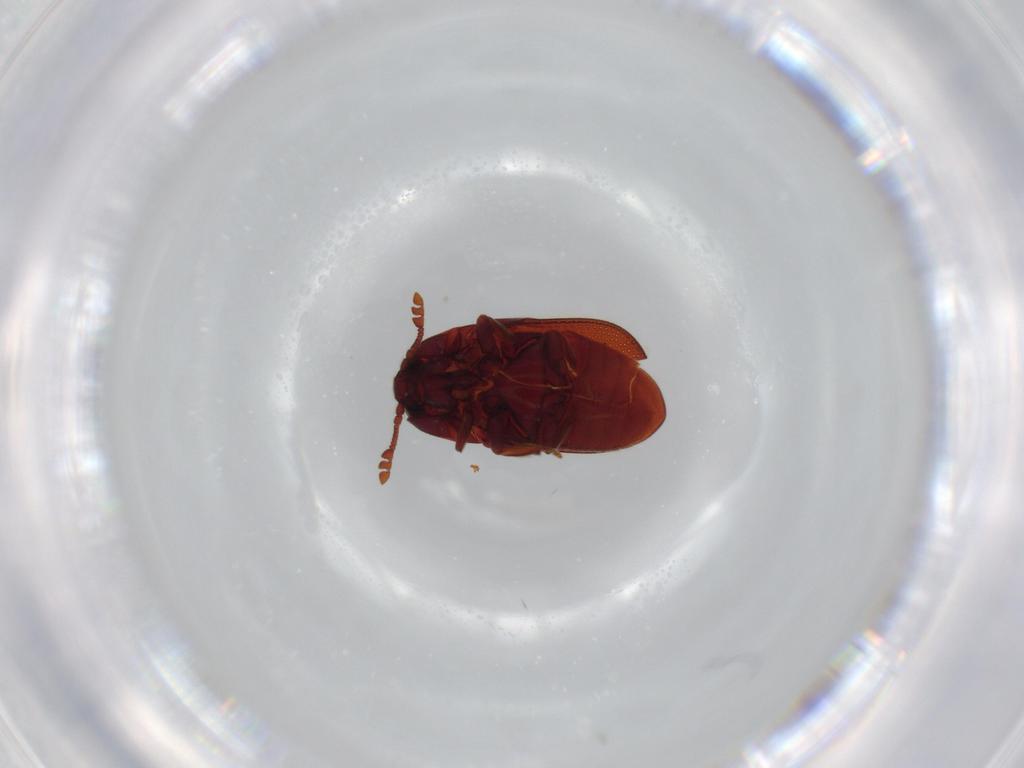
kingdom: Animalia
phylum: Arthropoda
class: Insecta
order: Coleoptera
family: Throscidae
